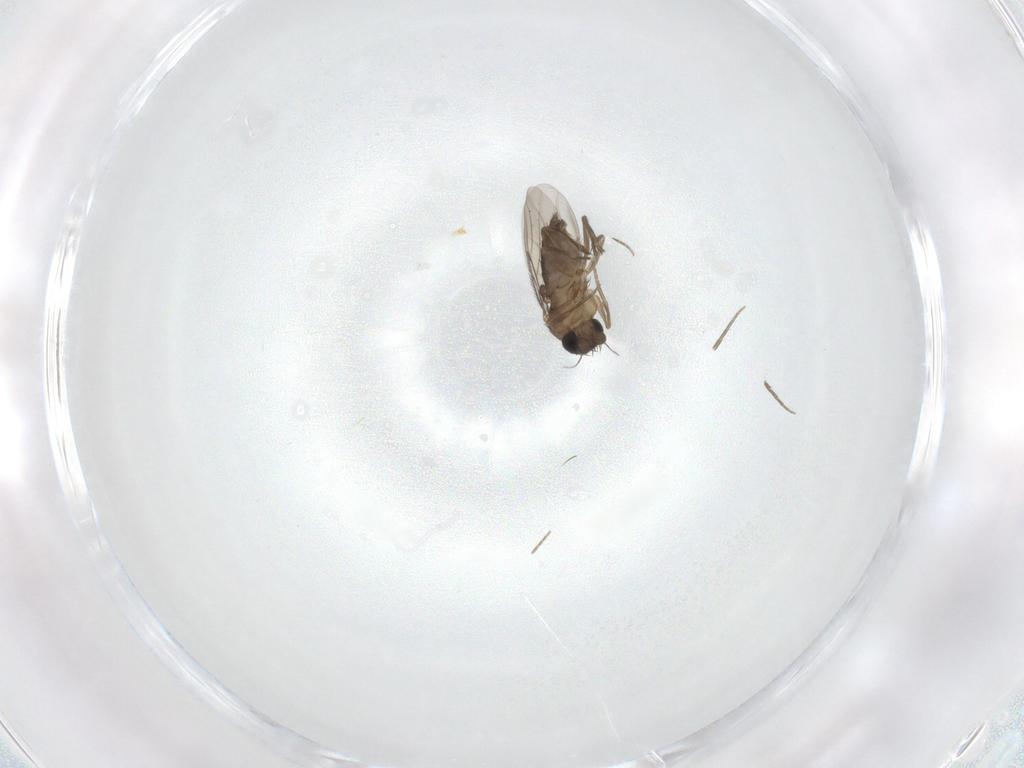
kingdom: Animalia
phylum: Arthropoda
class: Insecta
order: Diptera
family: Phoridae
